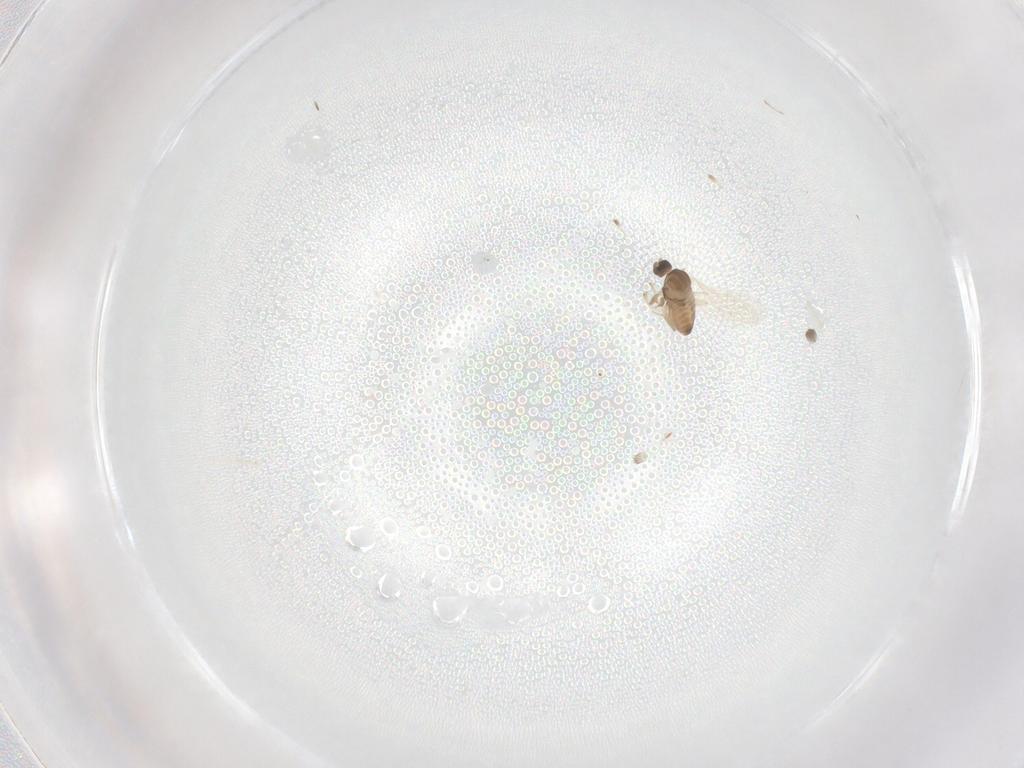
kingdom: Animalia
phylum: Arthropoda
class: Insecta
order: Diptera
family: Cecidomyiidae
